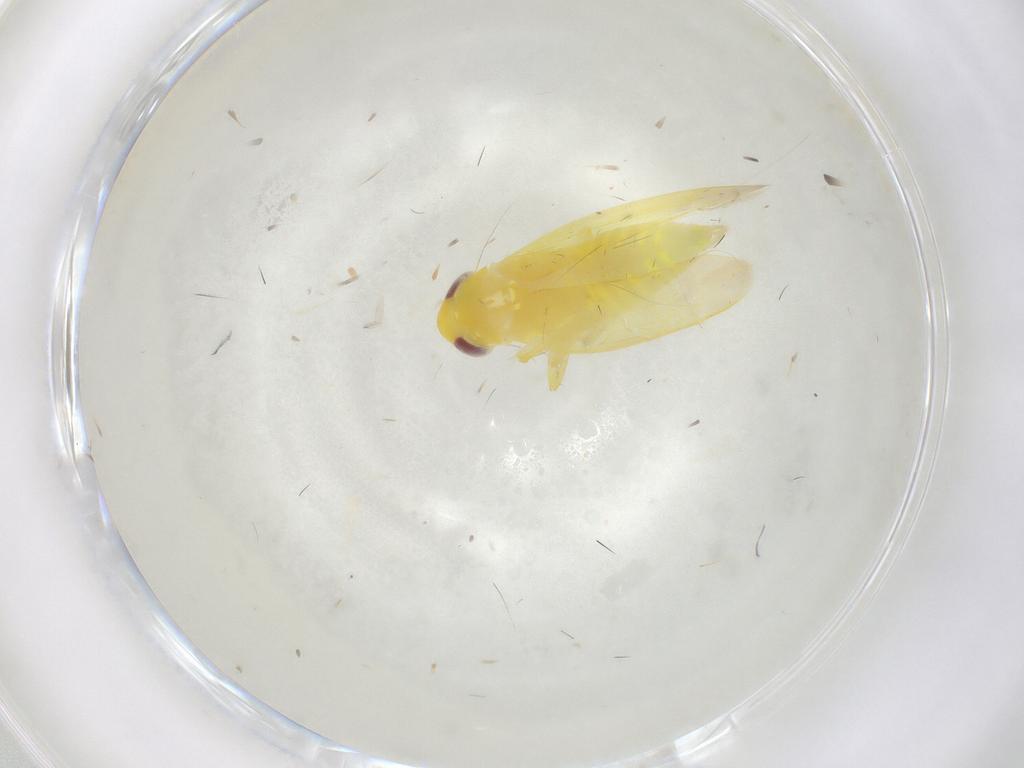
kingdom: Animalia
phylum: Arthropoda
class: Insecta
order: Hemiptera
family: Cicadellidae
